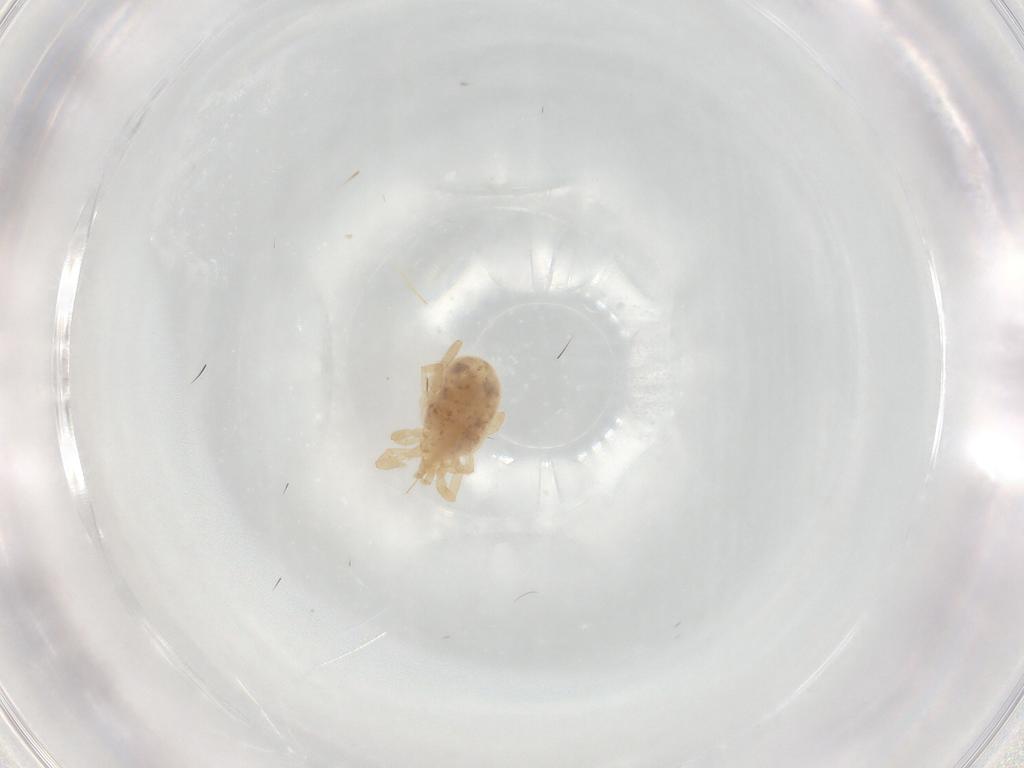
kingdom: Animalia
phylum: Arthropoda
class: Arachnida
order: Trombidiformes
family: Erythraeidae
